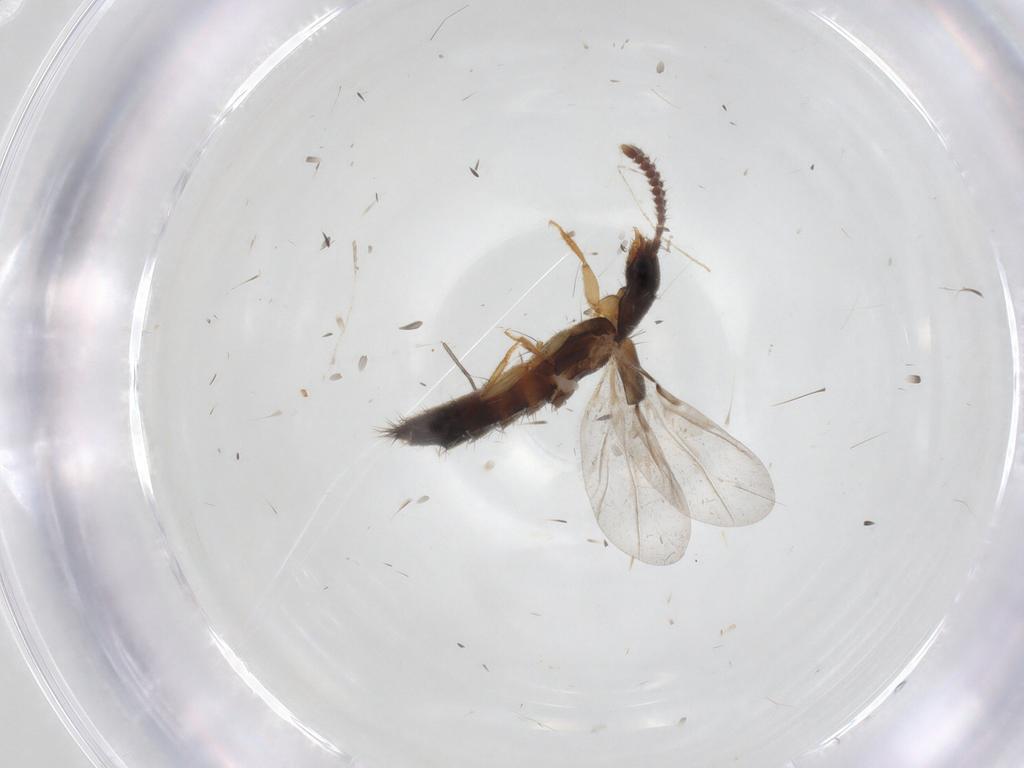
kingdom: Animalia
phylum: Arthropoda
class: Insecta
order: Coleoptera
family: Staphylinidae
